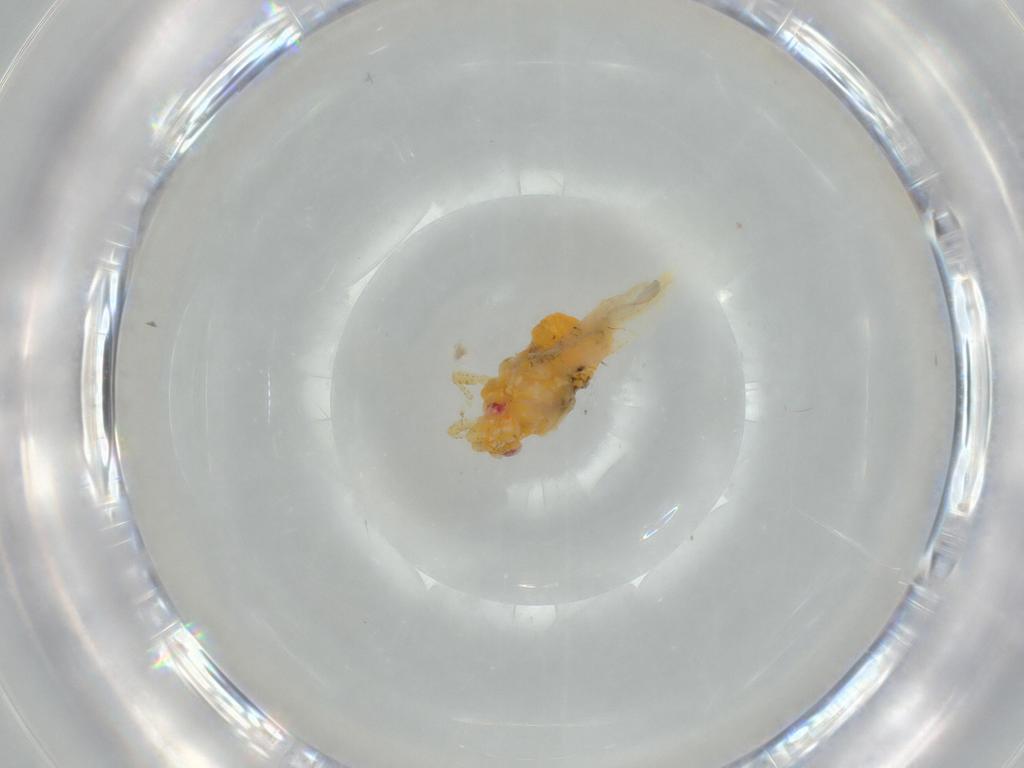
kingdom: Animalia
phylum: Arthropoda
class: Insecta
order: Hemiptera
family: Psyllidae
